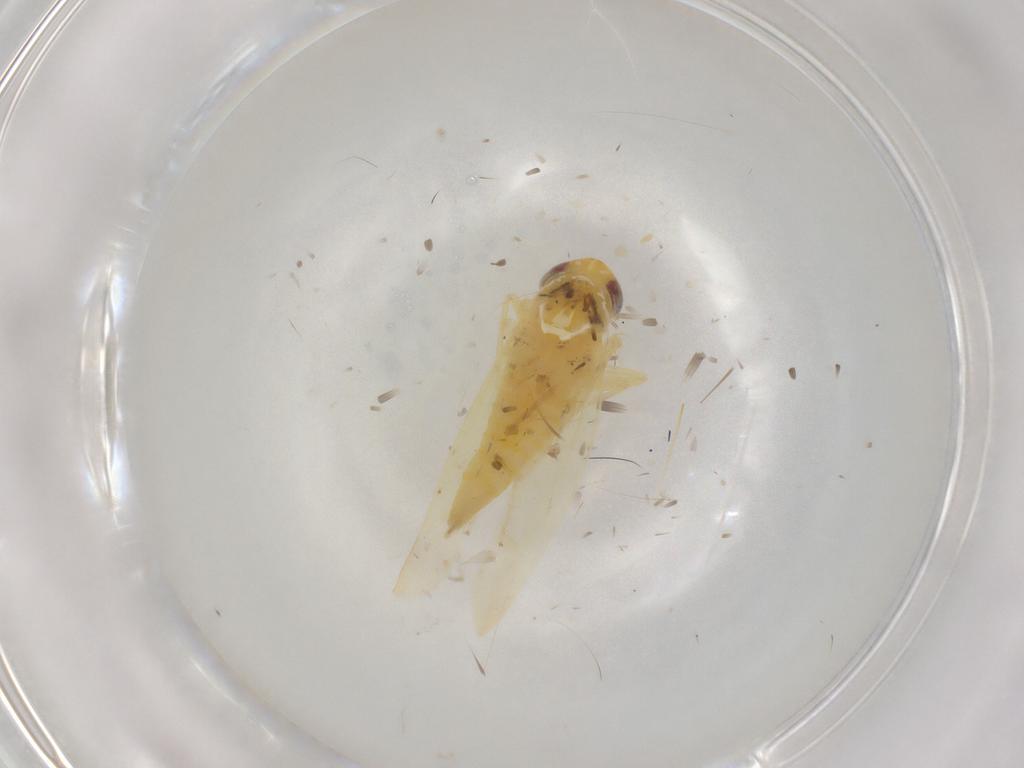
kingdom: Animalia
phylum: Arthropoda
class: Insecta
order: Hemiptera
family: Cicadellidae
